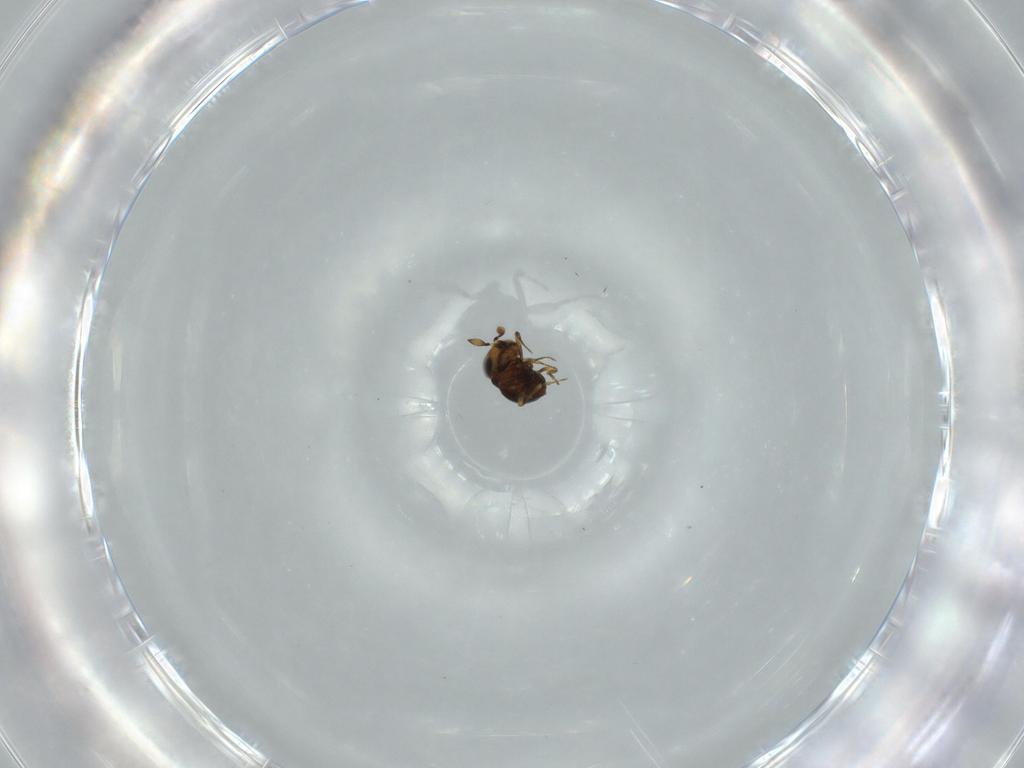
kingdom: Animalia
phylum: Arthropoda
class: Insecta
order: Hymenoptera
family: Scelionidae
